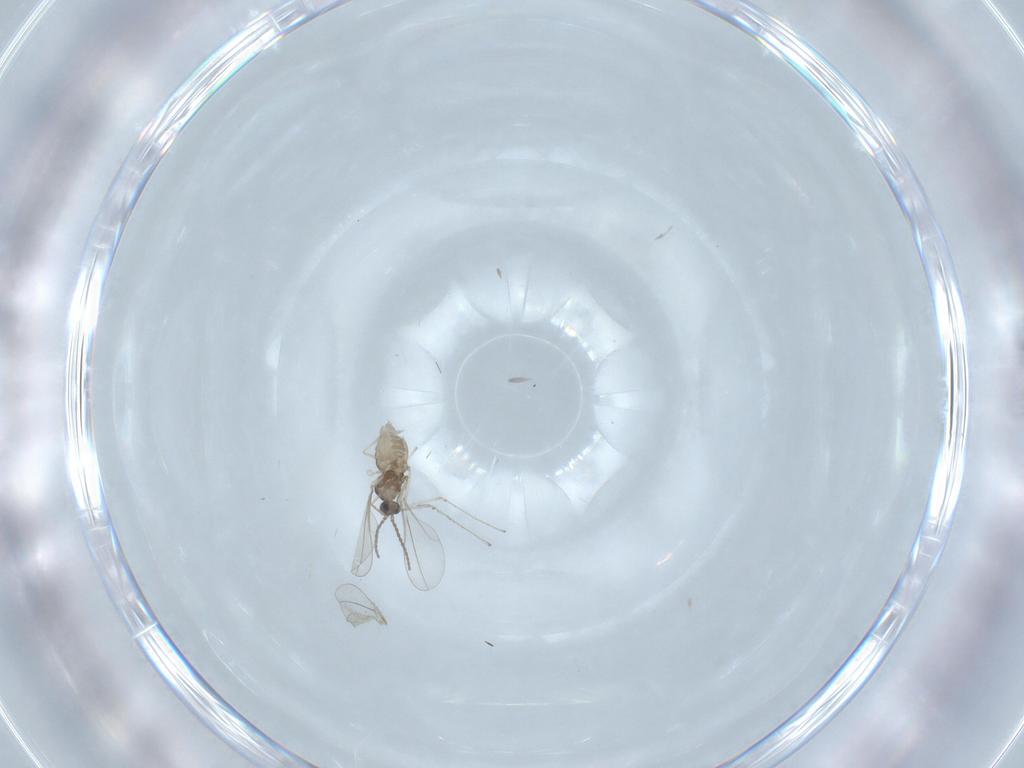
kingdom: Animalia
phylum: Arthropoda
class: Insecta
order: Diptera
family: Cecidomyiidae
